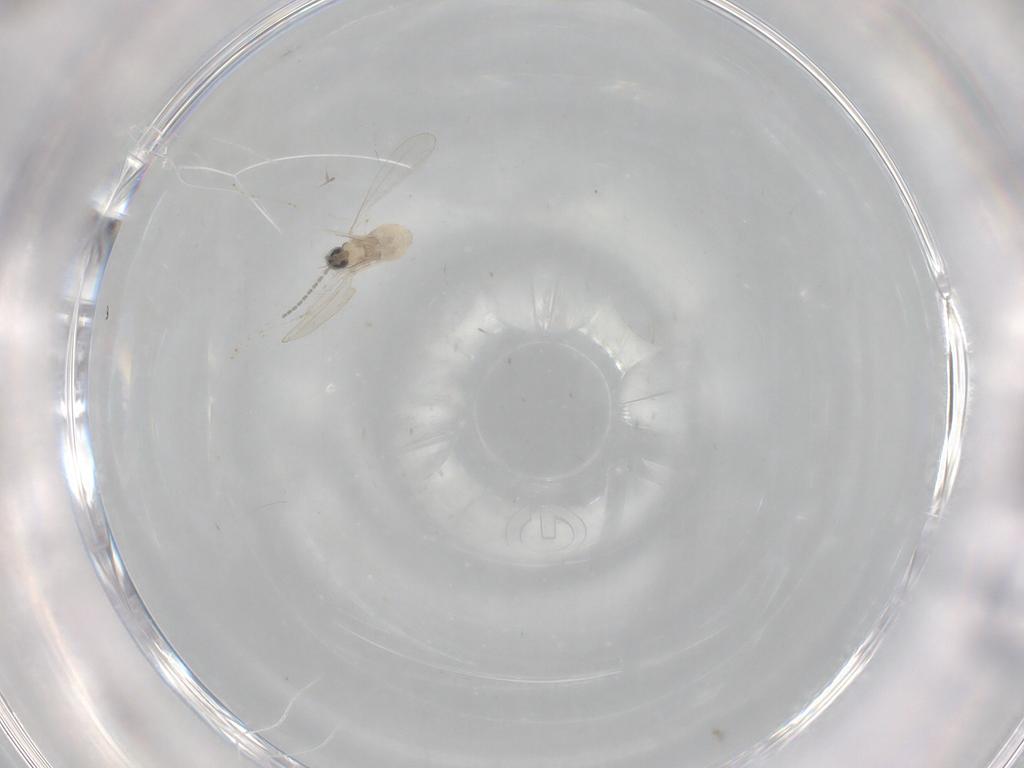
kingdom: Animalia
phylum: Arthropoda
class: Insecta
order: Diptera
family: Cecidomyiidae
